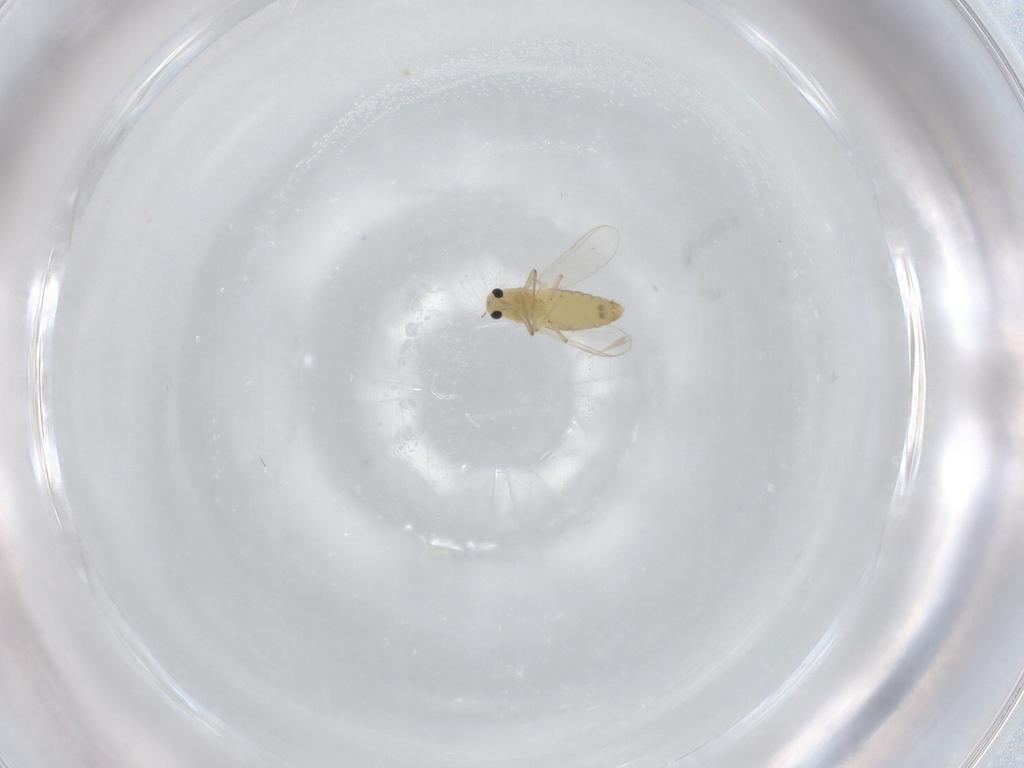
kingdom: Animalia
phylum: Arthropoda
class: Insecta
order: Diptera
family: Chironomidae
